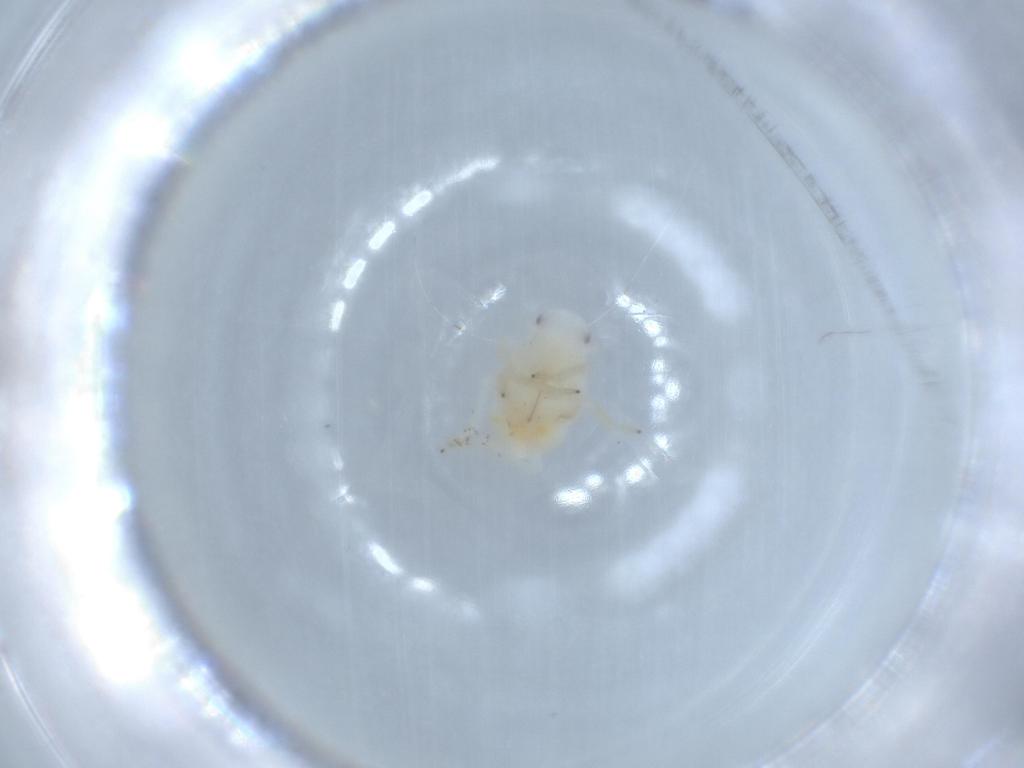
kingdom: Animalia
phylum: Arthropoda
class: Insecta
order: Hemiptera
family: Flatidae
